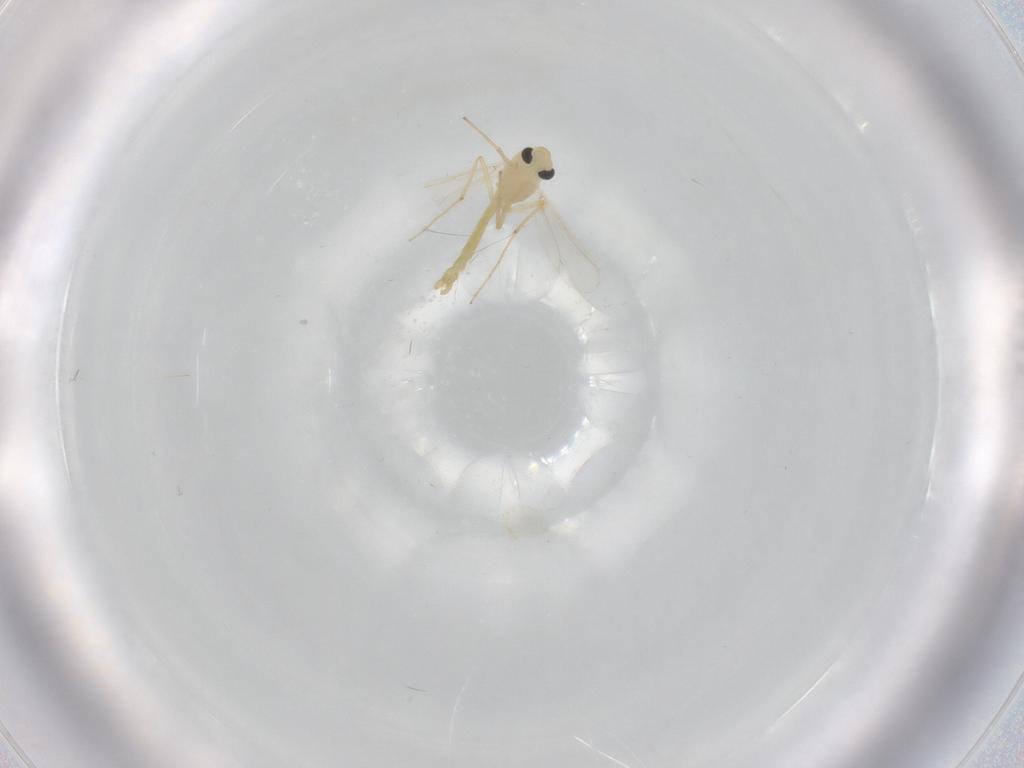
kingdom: Animalia
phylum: Arthropoda
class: Insecta
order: Diptera
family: Chironomidae
